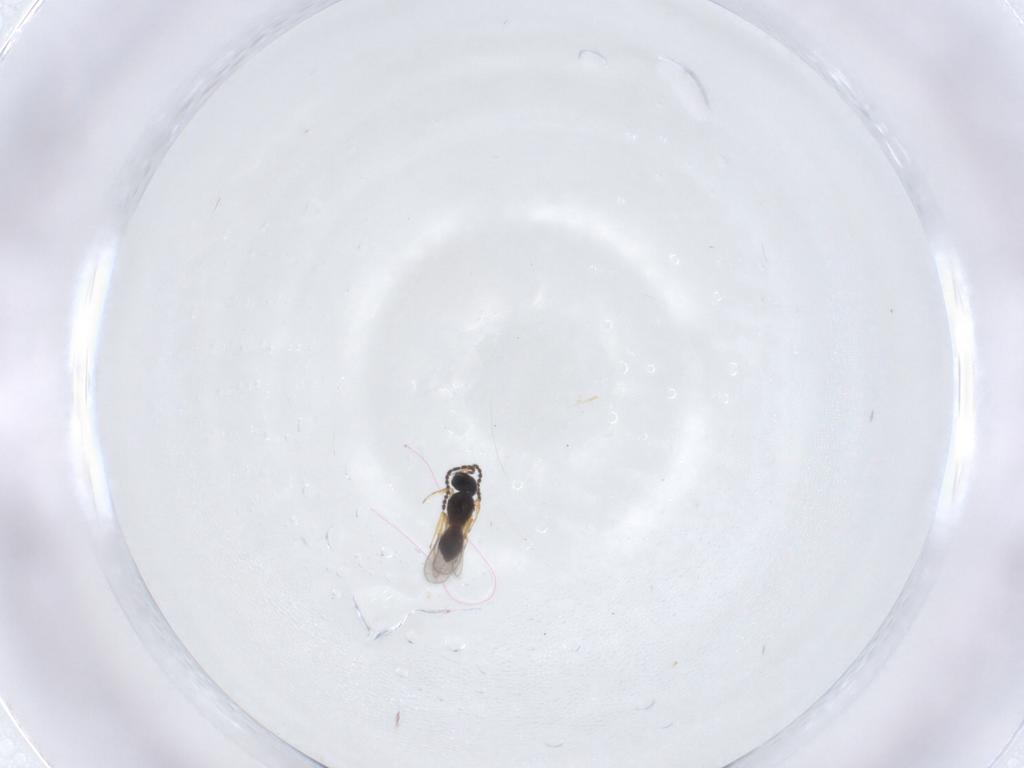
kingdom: Animalia
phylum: Arthropoda
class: Insecta
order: Hymenoptera
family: Scelionidae
